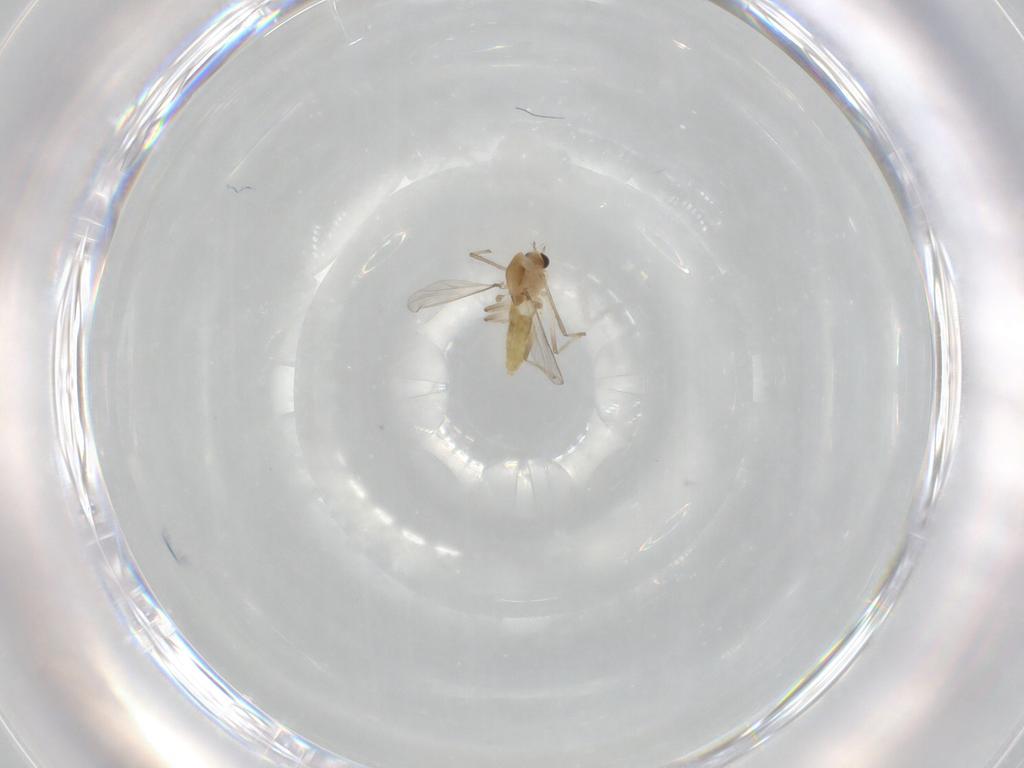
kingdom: Animalia
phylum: Arthropoda
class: Insecta
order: Diptera
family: Chironomidae
